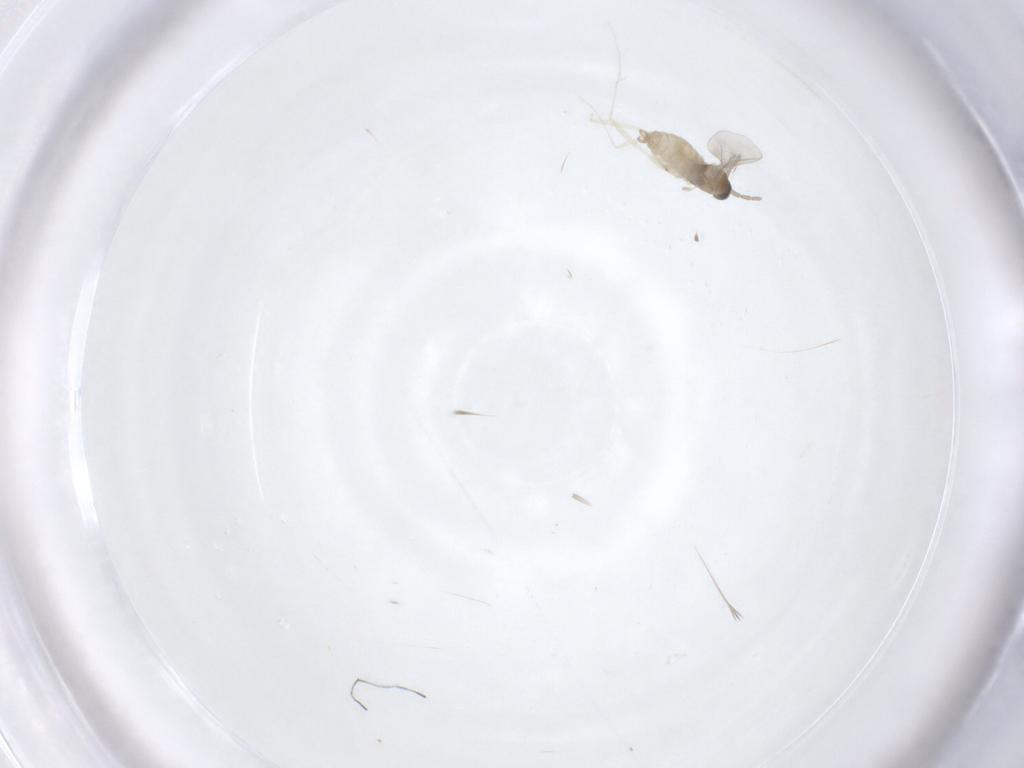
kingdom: Animalia
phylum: Arthropoda
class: Insecta
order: Diptera
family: Cecidomyiidae
